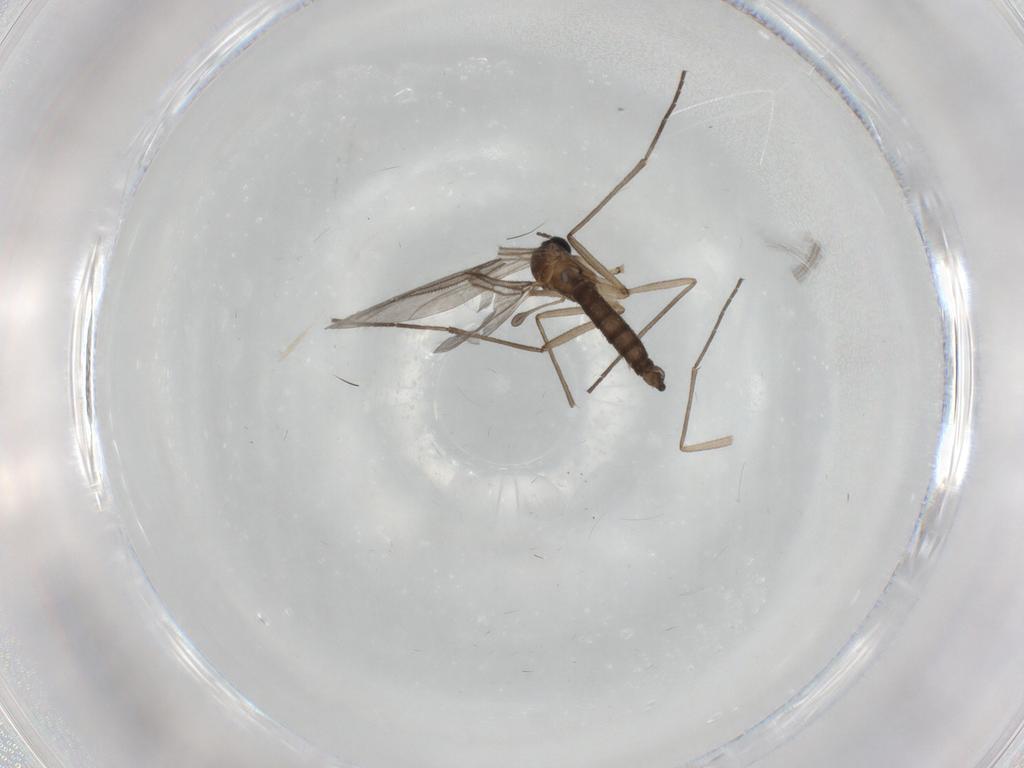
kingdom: Animalia
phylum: Arthropoda
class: Insecta
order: Diptera
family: Sciaridae
